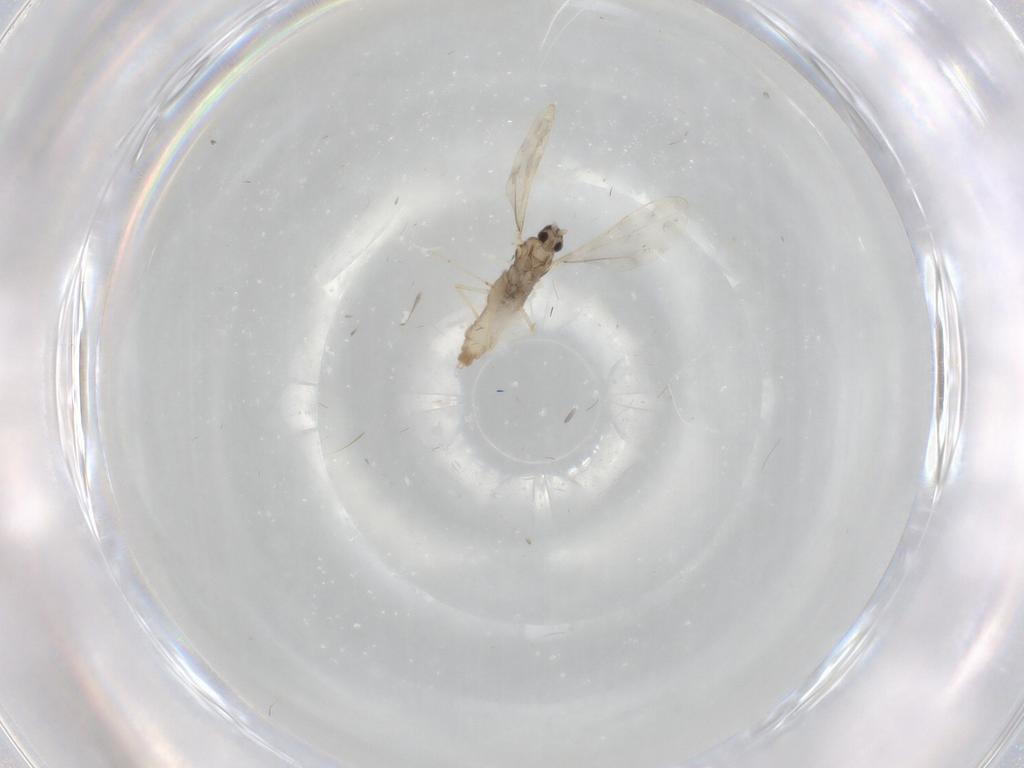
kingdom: Animalia
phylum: Arthropoda
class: Insecta
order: Diptera
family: Cecidomyiidae
